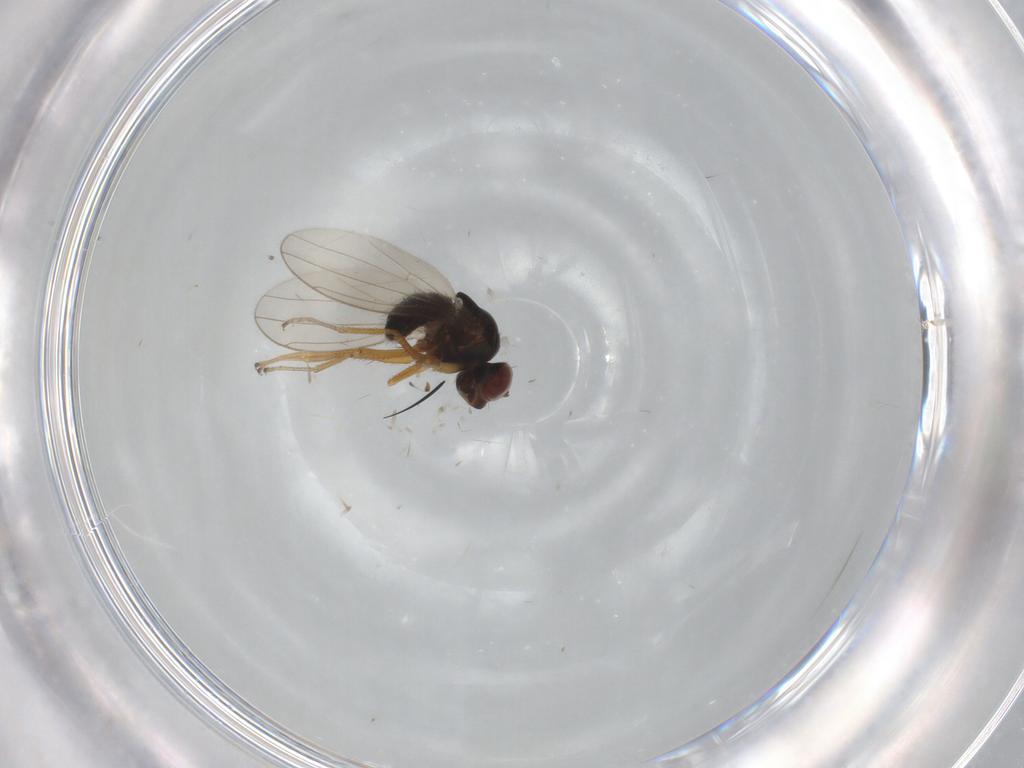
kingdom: Animalia
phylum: Arthropoda
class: Insecta
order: Diptera
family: Ephydridae
